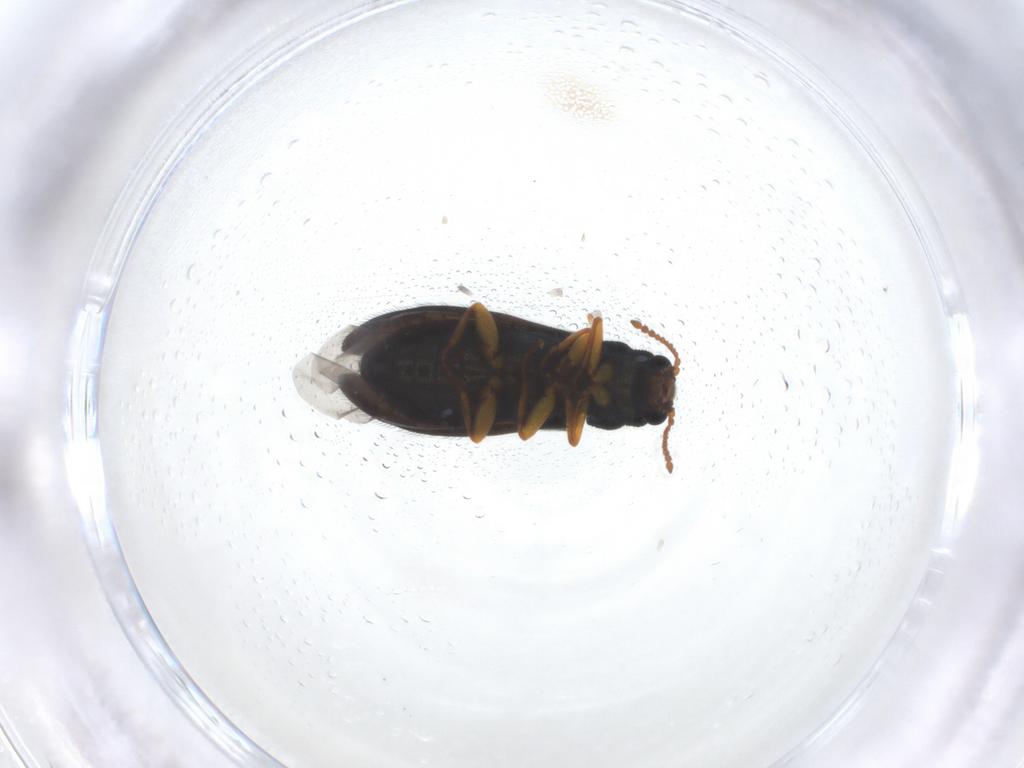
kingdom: Animalia
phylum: Arthropoda
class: Insecta
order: Coleoptera
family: Melyridae
